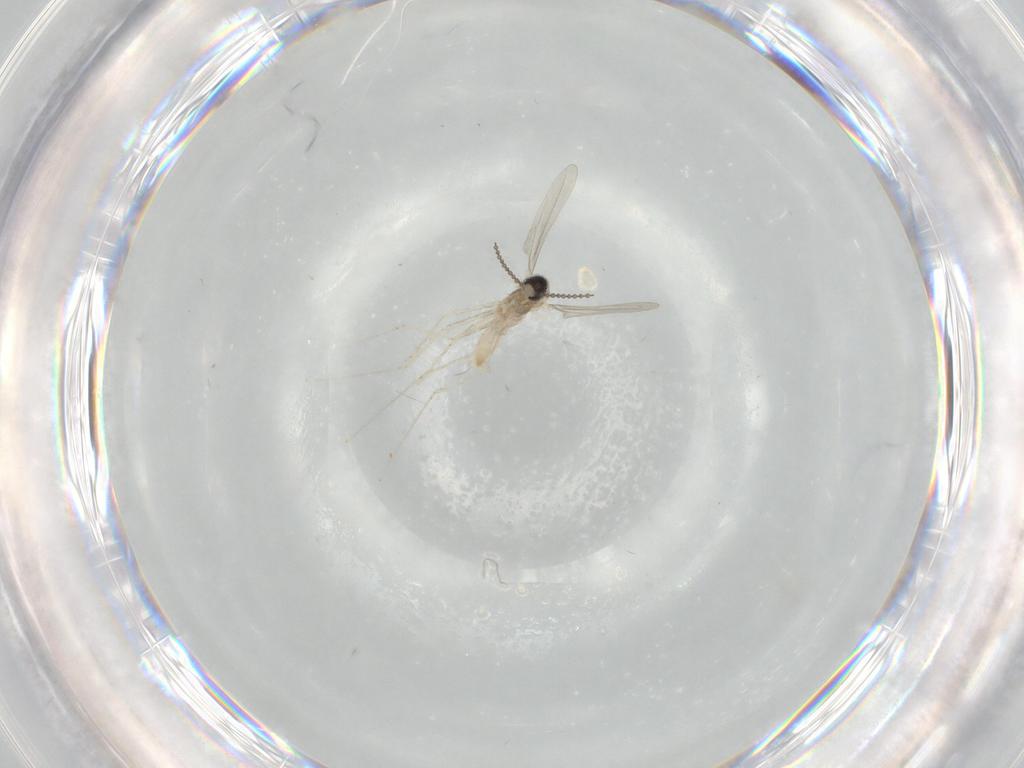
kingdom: Animalia
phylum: Arthropoda
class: Insecta
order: Diptera
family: Cecidomyiidae
